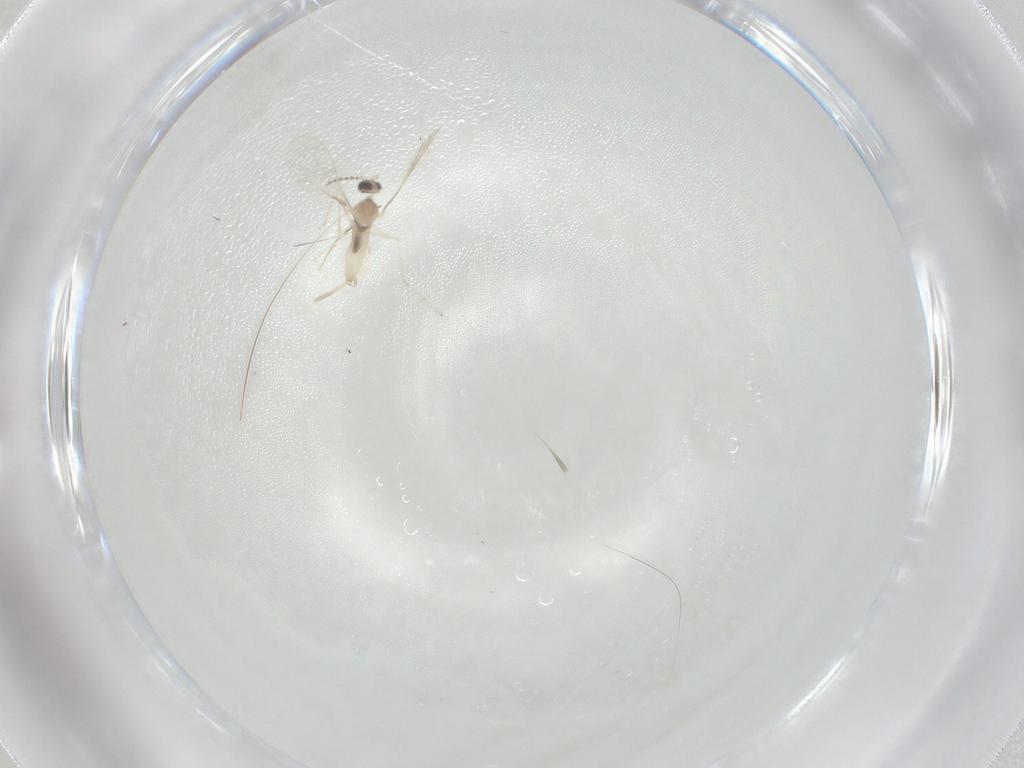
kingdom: Animalia
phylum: Arthropoda
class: Insecta
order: Diptera
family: Cecidomyiidae
